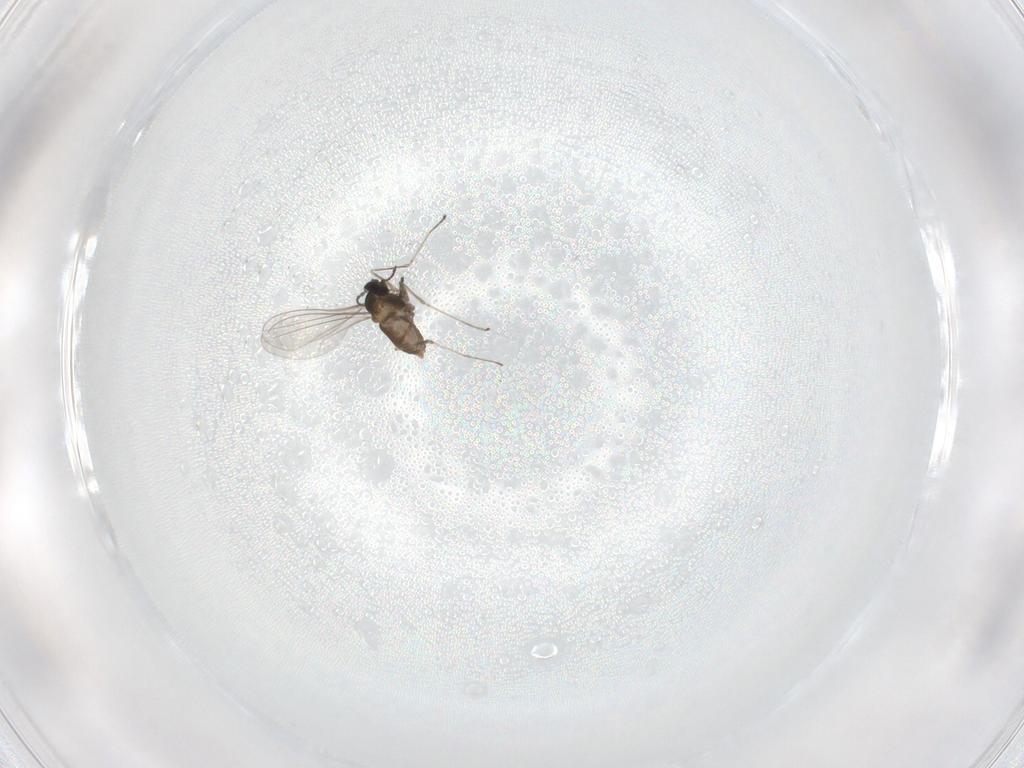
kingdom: Animalia
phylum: Arthropoda
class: Insecta
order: Diptera
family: Cecidomyiidae
